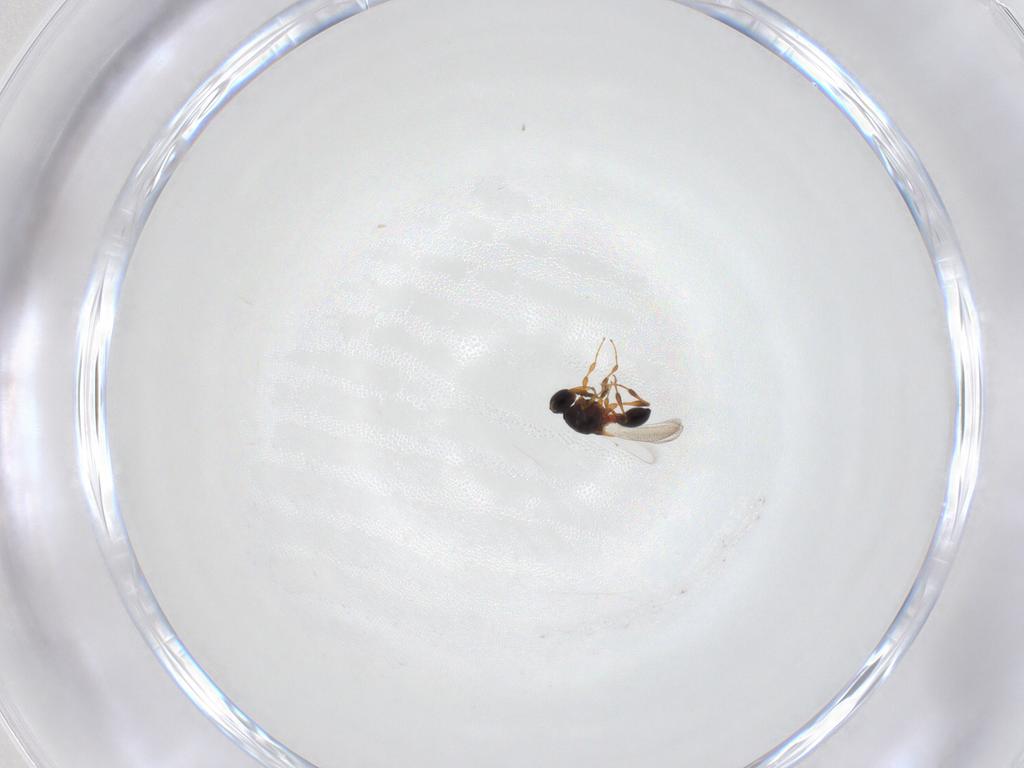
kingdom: Animalia
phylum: Arthropoda
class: Insecta
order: Hymenoptera
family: Platygastridae
